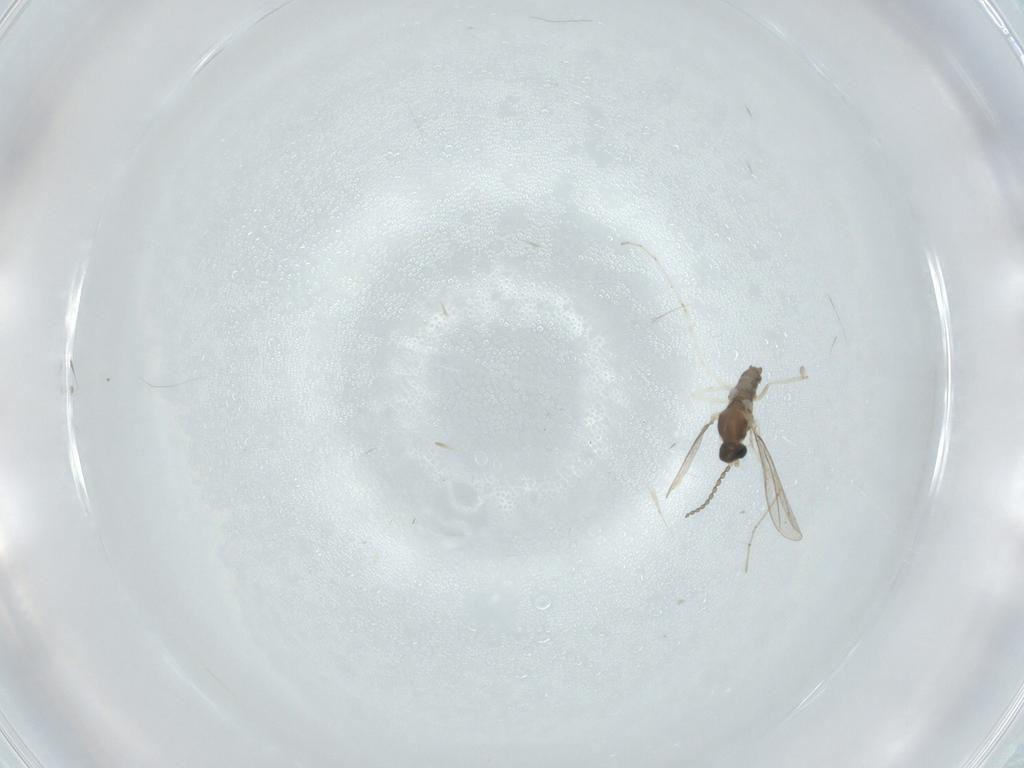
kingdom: Animalia
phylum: Arthropoda
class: Insecta
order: Diptera
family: Cecidomyiidae
